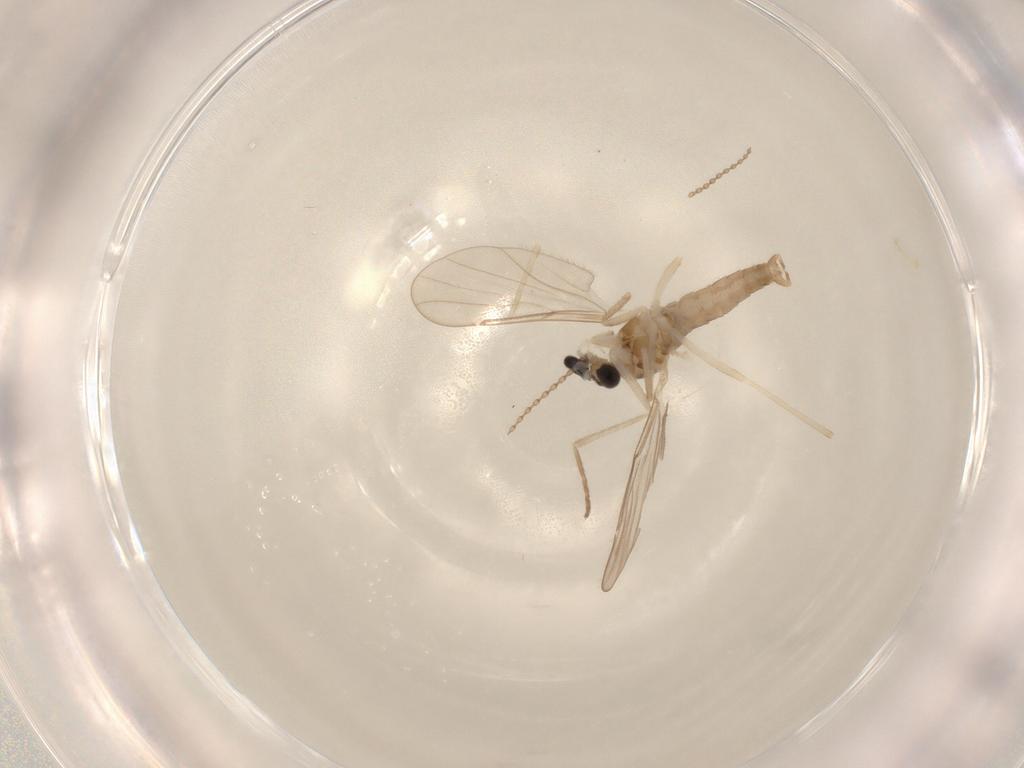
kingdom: Animalia
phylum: Arthropoda
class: Insecta
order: Diptera
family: Cecidomyiidae
